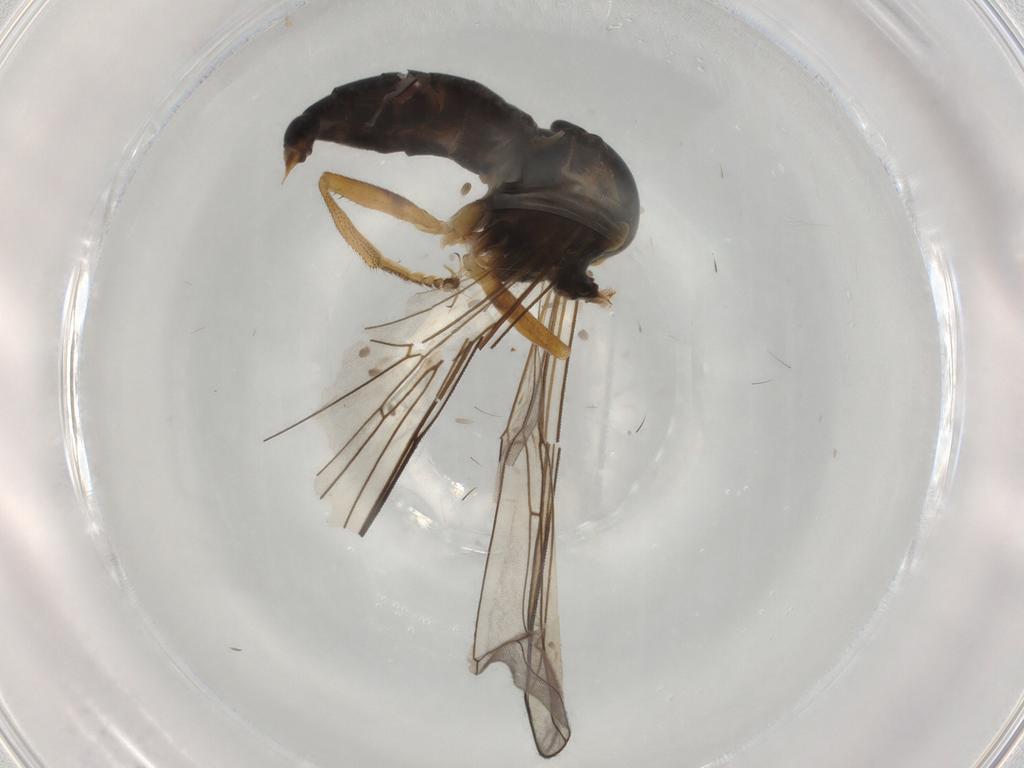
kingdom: Animalia
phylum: Arthropoda
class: Insecta
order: Diptera
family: Pipunculidae
